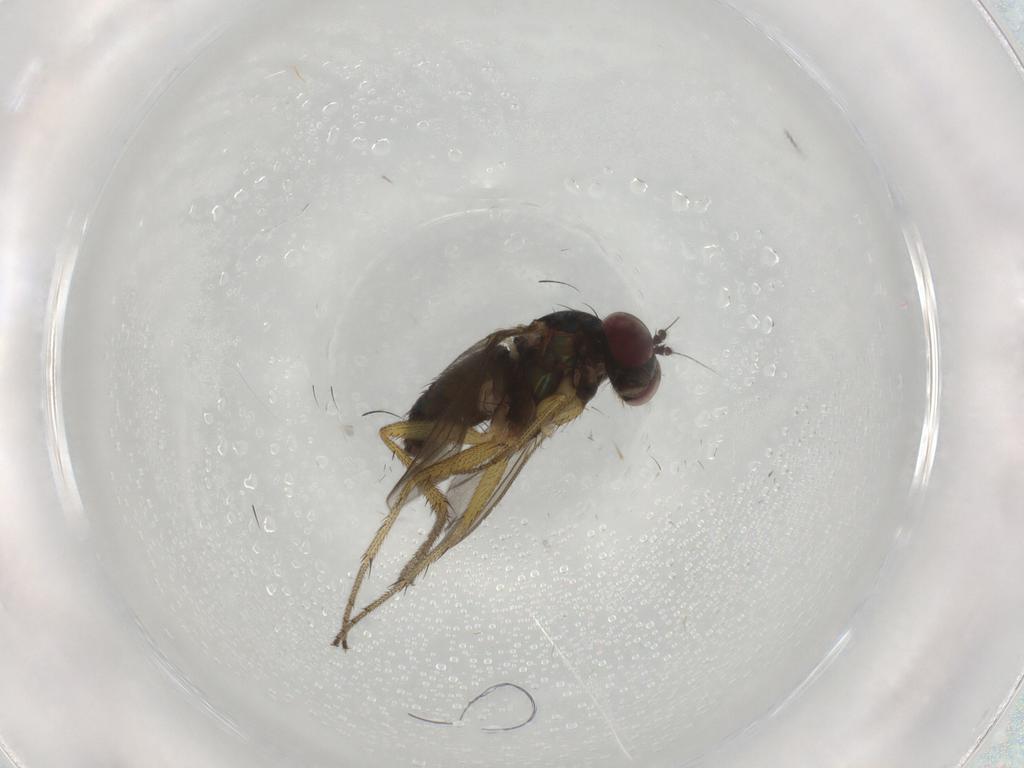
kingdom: Animalia
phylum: Arthropoda
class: Insecta
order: Diptera
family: Dolichopodidae
